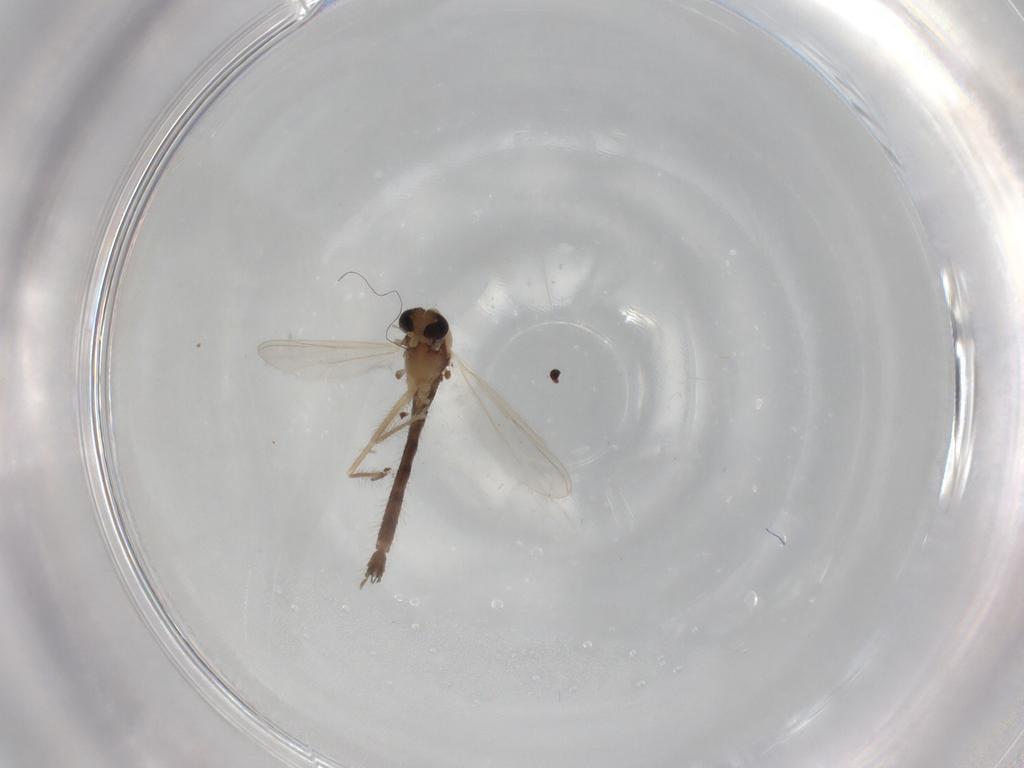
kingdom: Animalia
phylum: Arthropoda
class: Insecta
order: Diptera
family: Chironomidae
